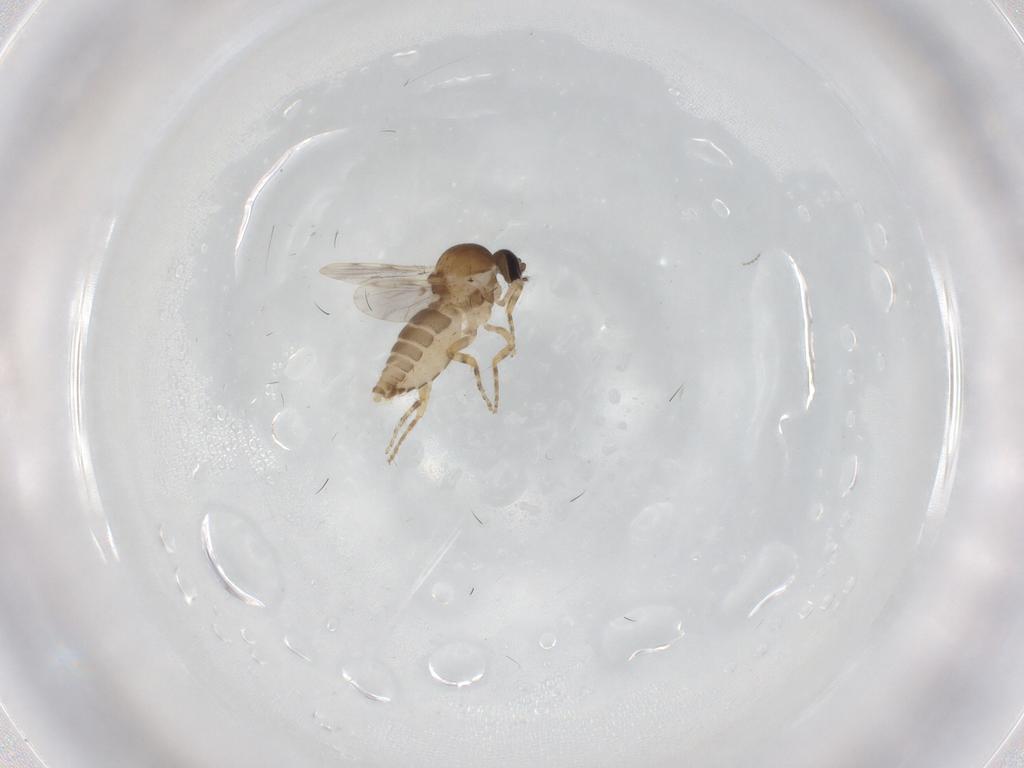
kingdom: Animalia
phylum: Arthropoda
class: Insecta
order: Diptera
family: Ceratopogonidae
